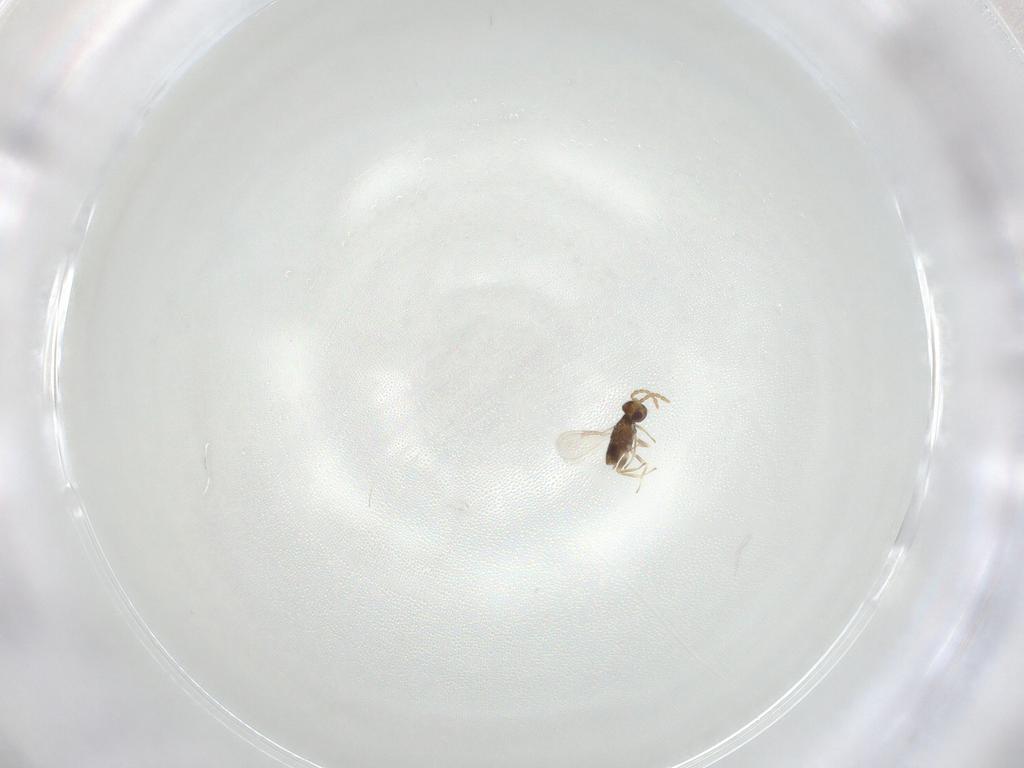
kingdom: Animalia
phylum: Arthropoda
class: Insecta
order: Hymenoptera
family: Aphelinidae
